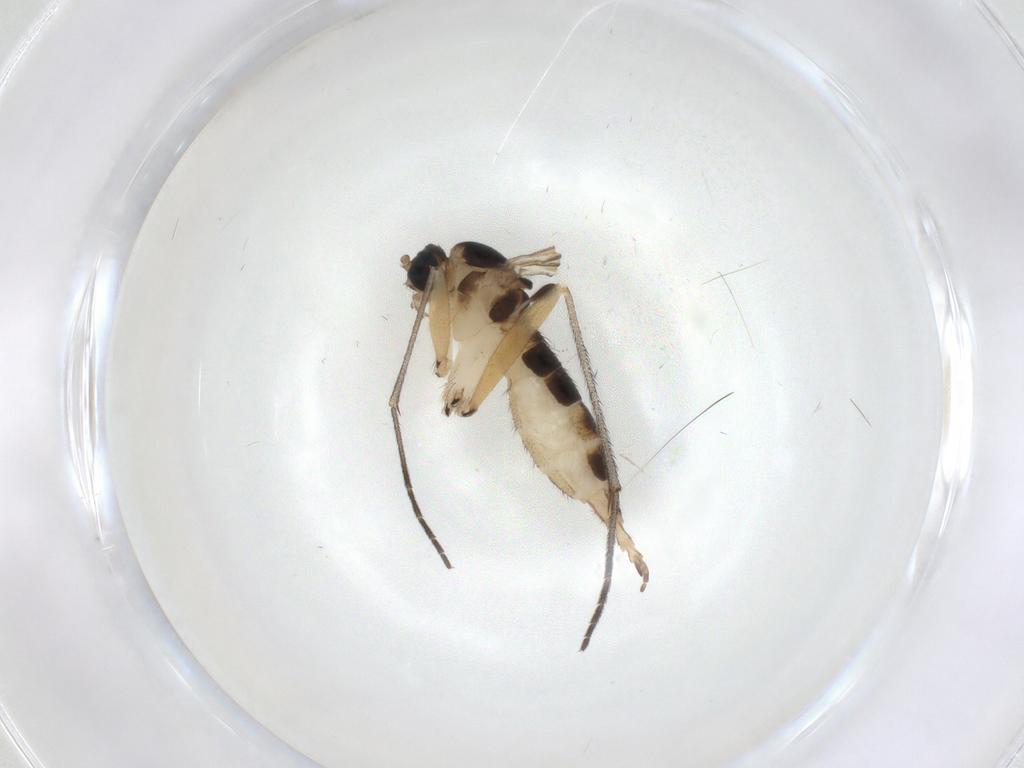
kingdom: Animalia
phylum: Arthropoda
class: Insecta
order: Diptera
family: Sciaridae
